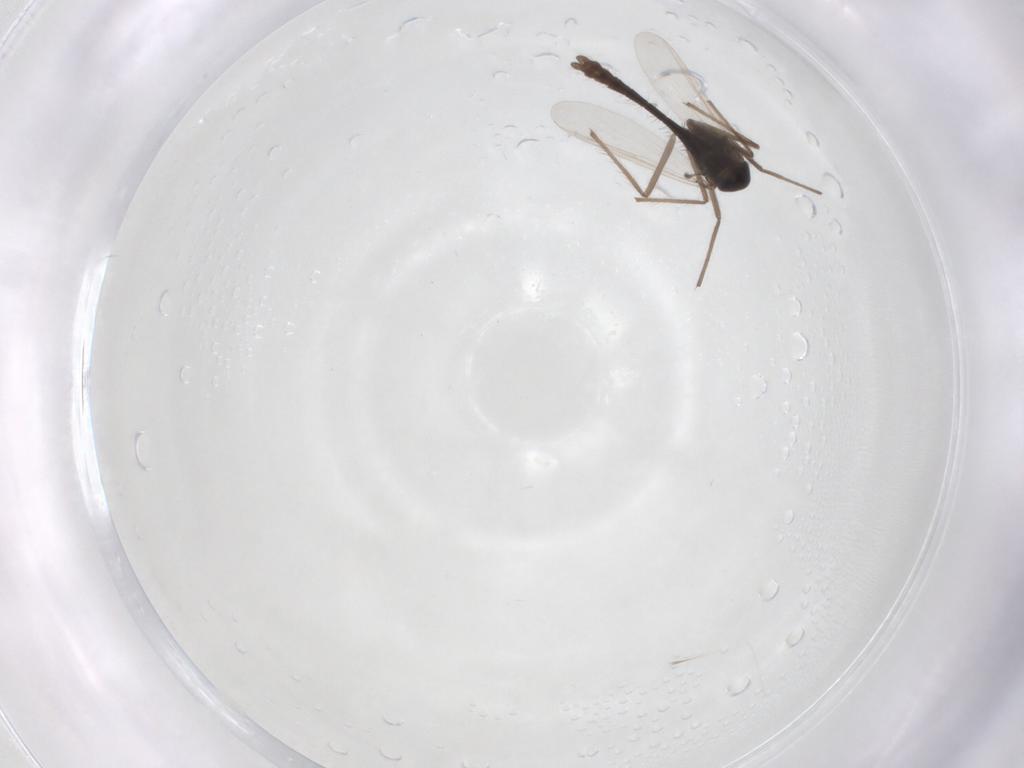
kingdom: Animalia
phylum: Arthropoda
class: Insecta
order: Diptera
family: Chironomidae
